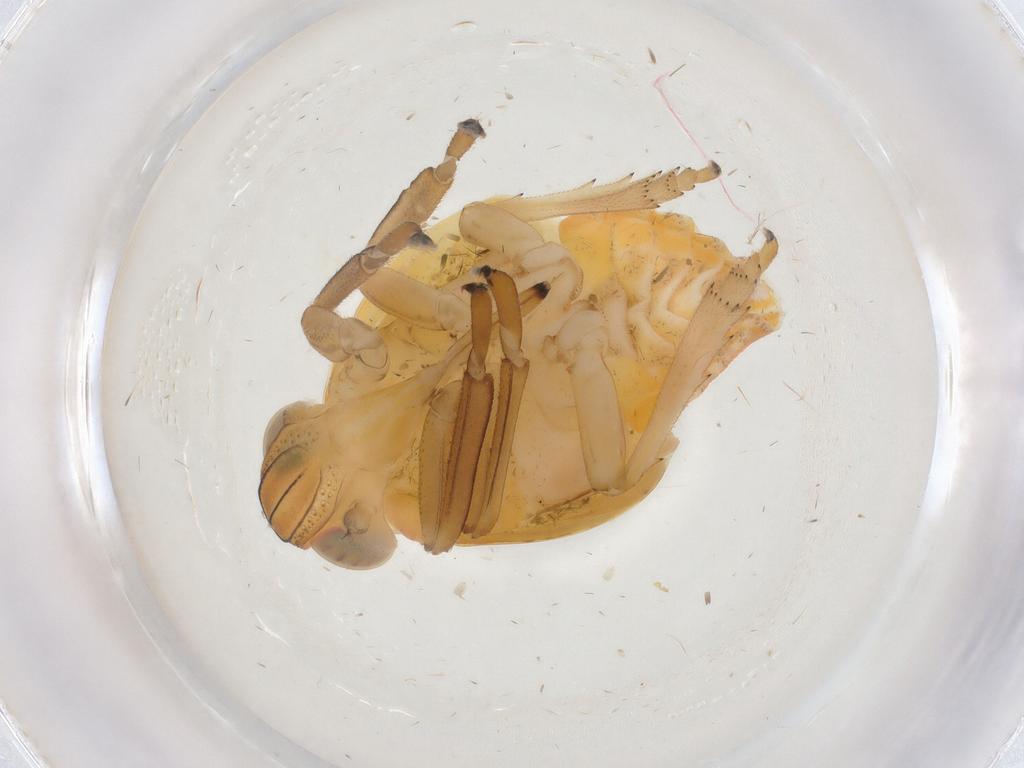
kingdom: Animalia
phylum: Arthropoda
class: Insecta
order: Hemiptera
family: Issidae
